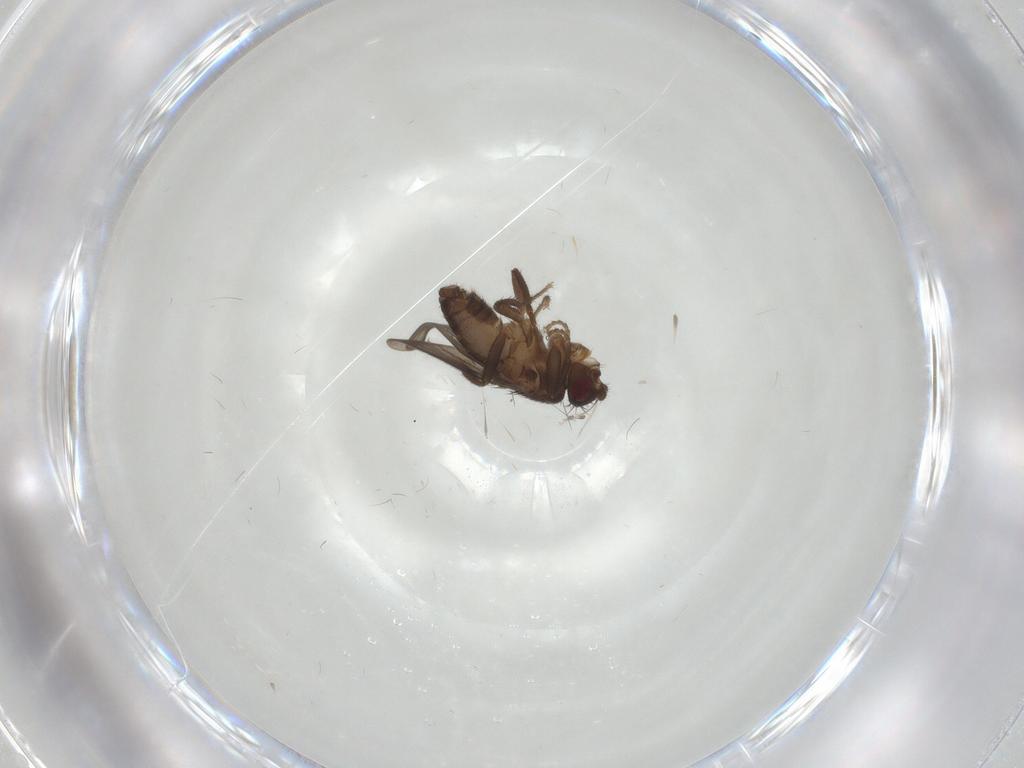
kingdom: Animalia
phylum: Arthropoda
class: Insecta
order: Diptera
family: Sphaeroceridae
